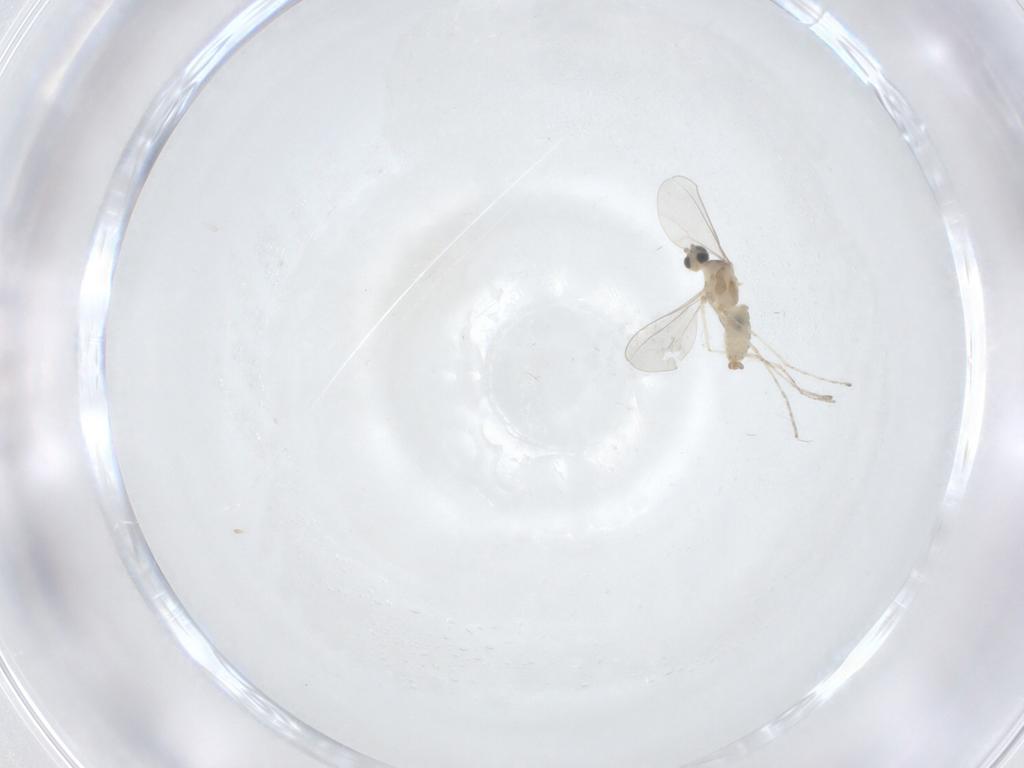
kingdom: Animalia
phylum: Arthropoda
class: Insecta
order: Diptera
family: Cecidomyiidae
